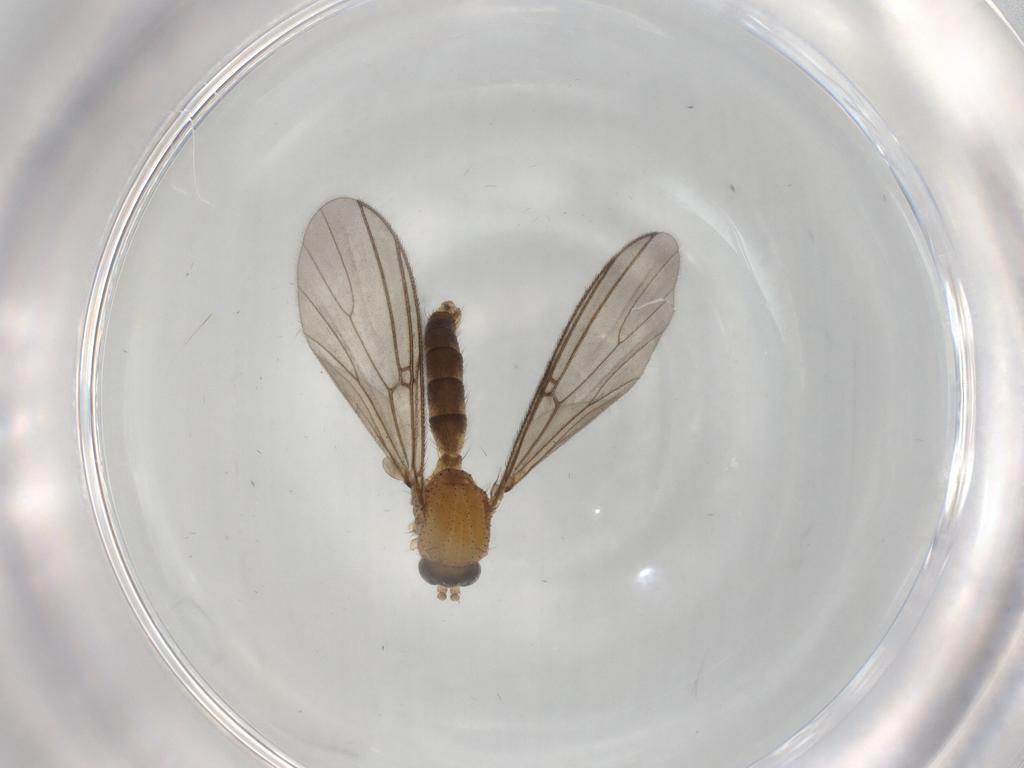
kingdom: Animalia
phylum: Arthropoda
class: Insecta
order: Diptera
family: Mycetophilidae
